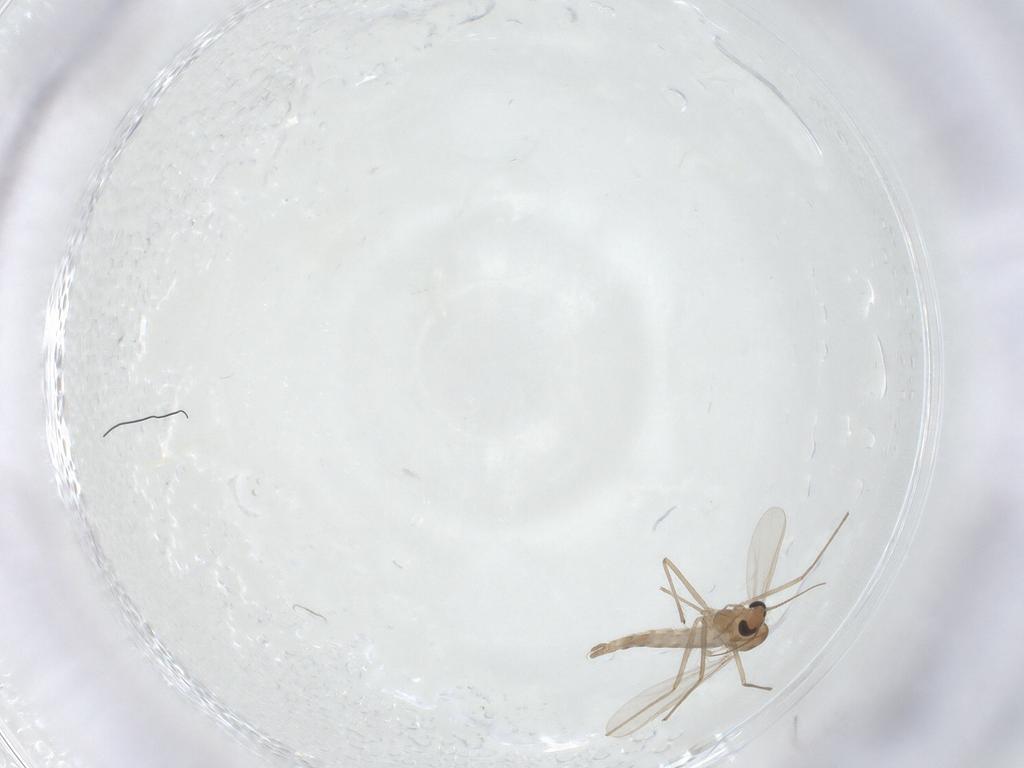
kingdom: Animalia
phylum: Arthropoda
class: Insecta
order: Diptera
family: Chironomidae
